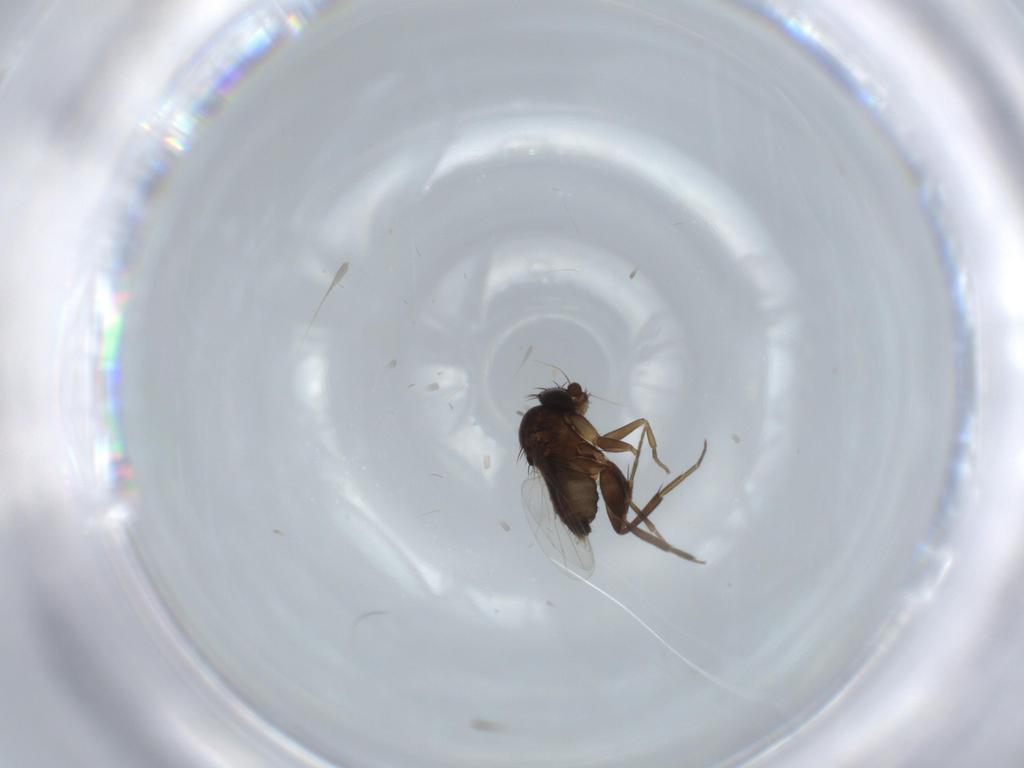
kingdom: Animalia
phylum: Arthropoda
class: Insecta
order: Diptera
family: Phoridae
